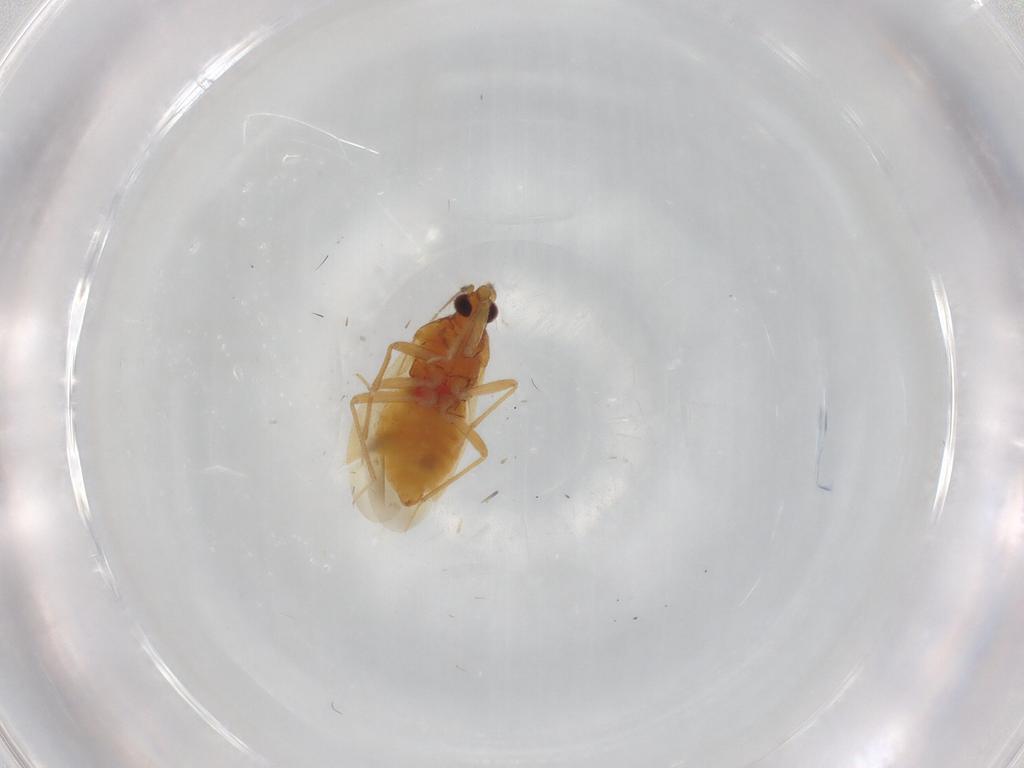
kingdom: Animalia
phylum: Arthropoda
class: Insecta
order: Hemiptera
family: Anthocoridae
